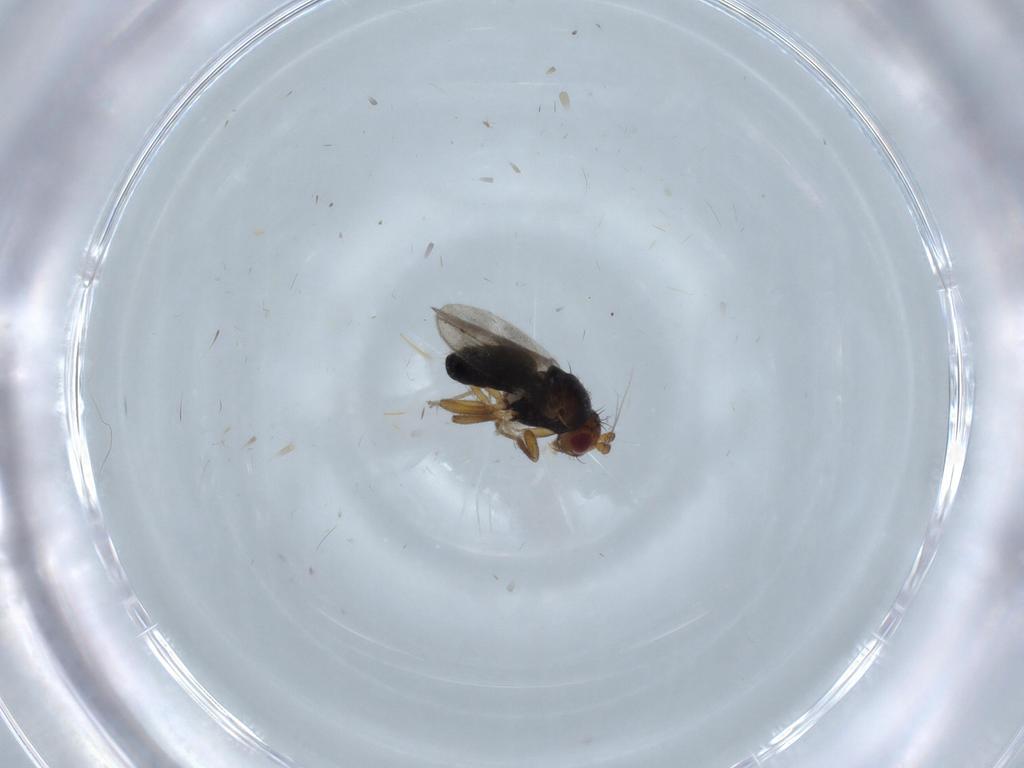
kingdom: Animalia
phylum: Arthropoda
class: Insecta
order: Diptera
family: Sphaeroceridae
